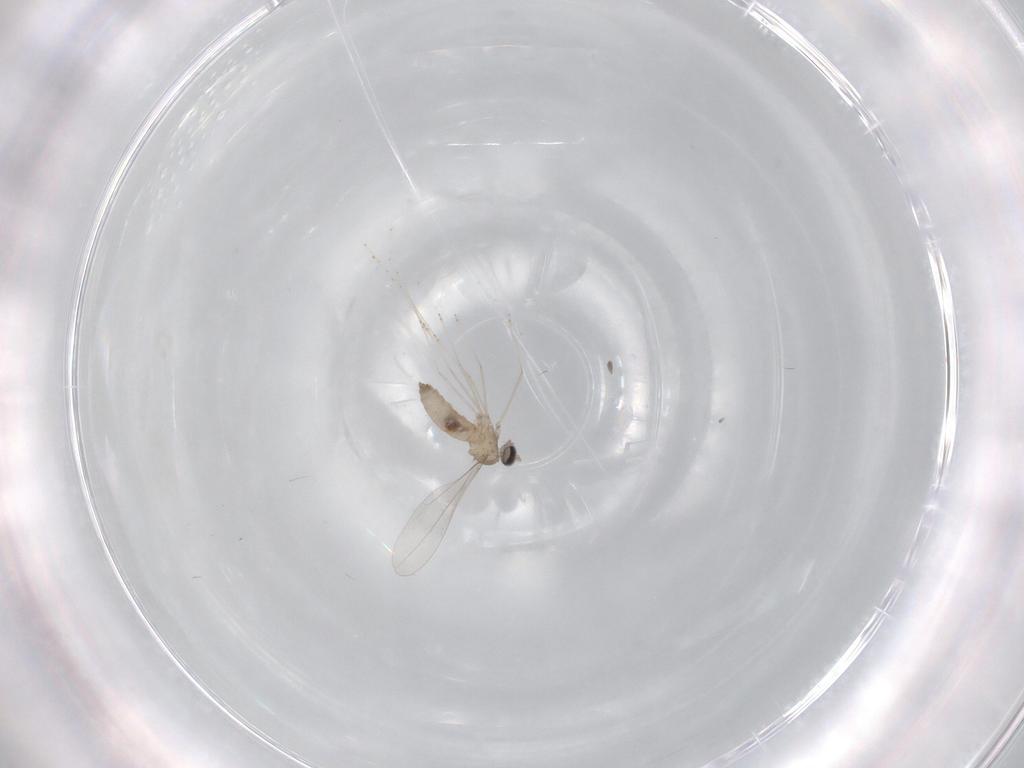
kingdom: Animalia
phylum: Arthropoda
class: Insecta
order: Diptera
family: Cecidomyiidae
